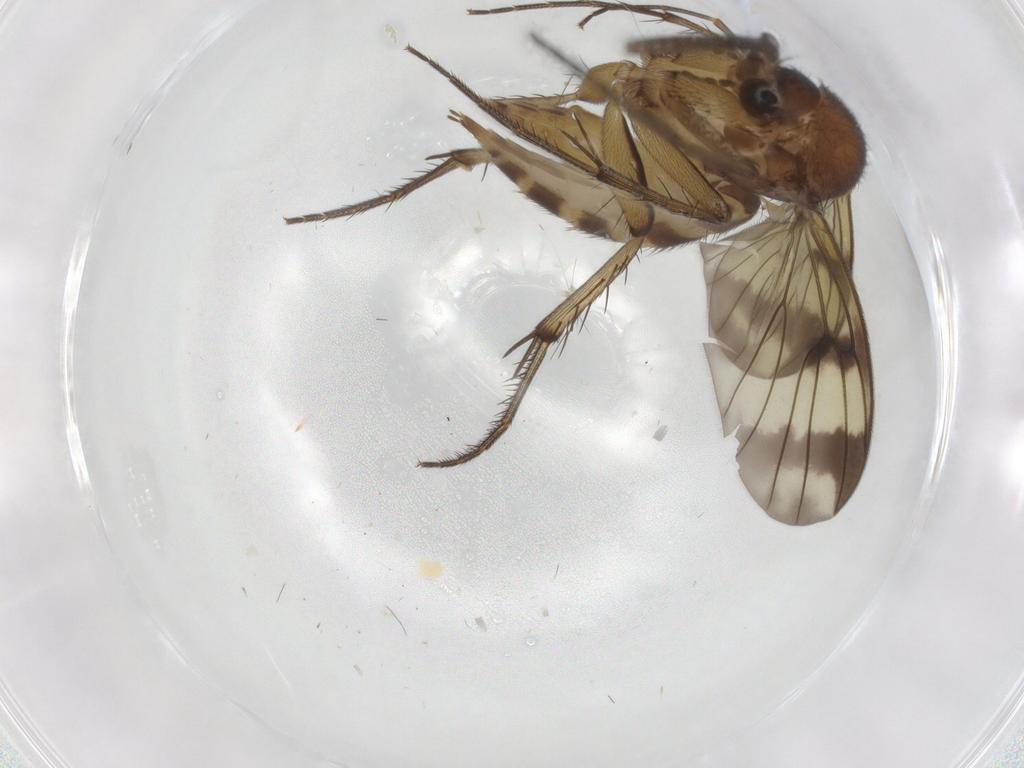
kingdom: Animalia
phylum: Arthropoda
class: Insecta
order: Diptera
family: Mycetophilidae
